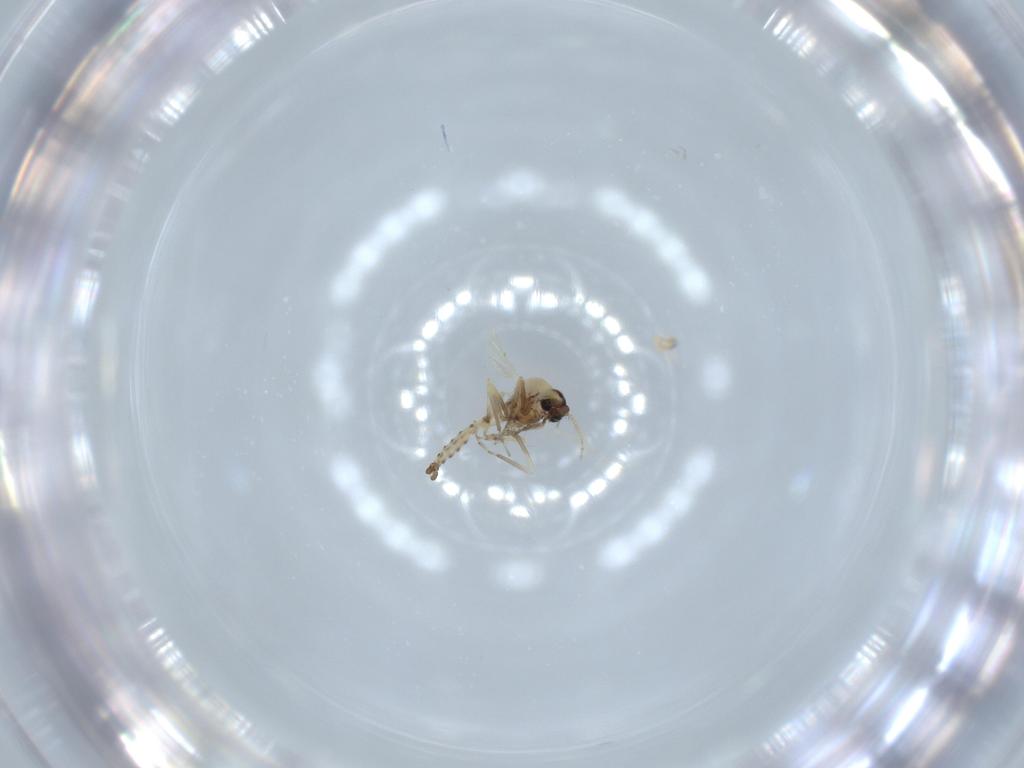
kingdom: Animalia
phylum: Arthropoda
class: Insecta
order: Diptera
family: Ceratopogonidae
